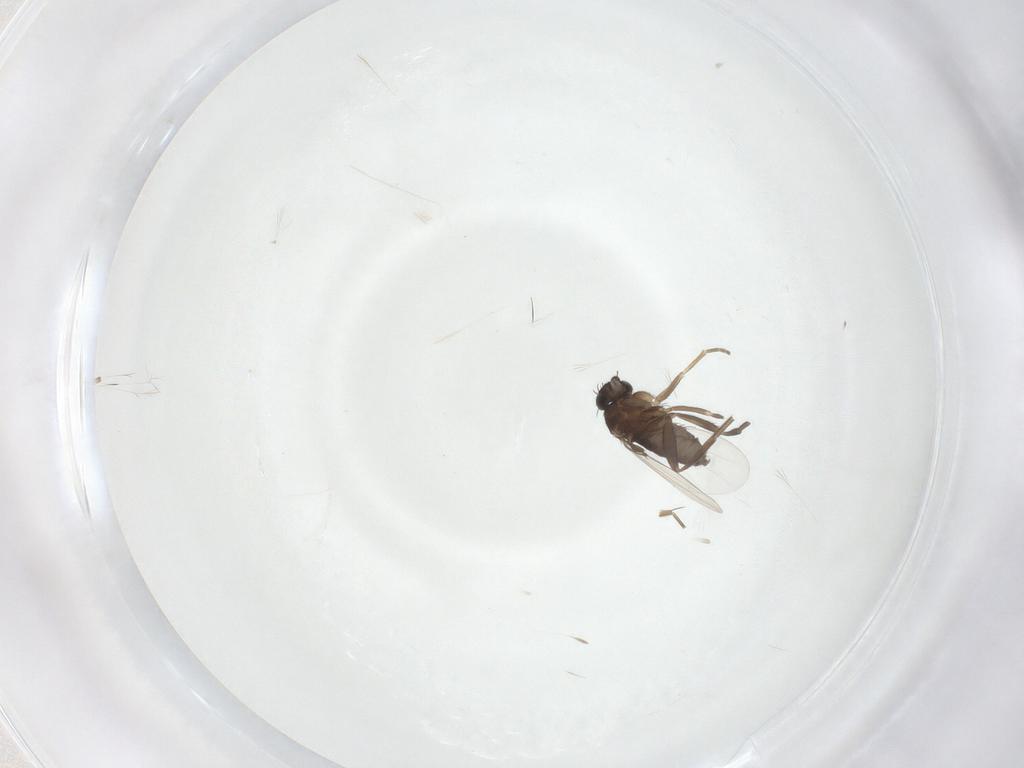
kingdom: Animalia
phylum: Arthropoda
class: Insecta
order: Diptera
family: Phoridae
